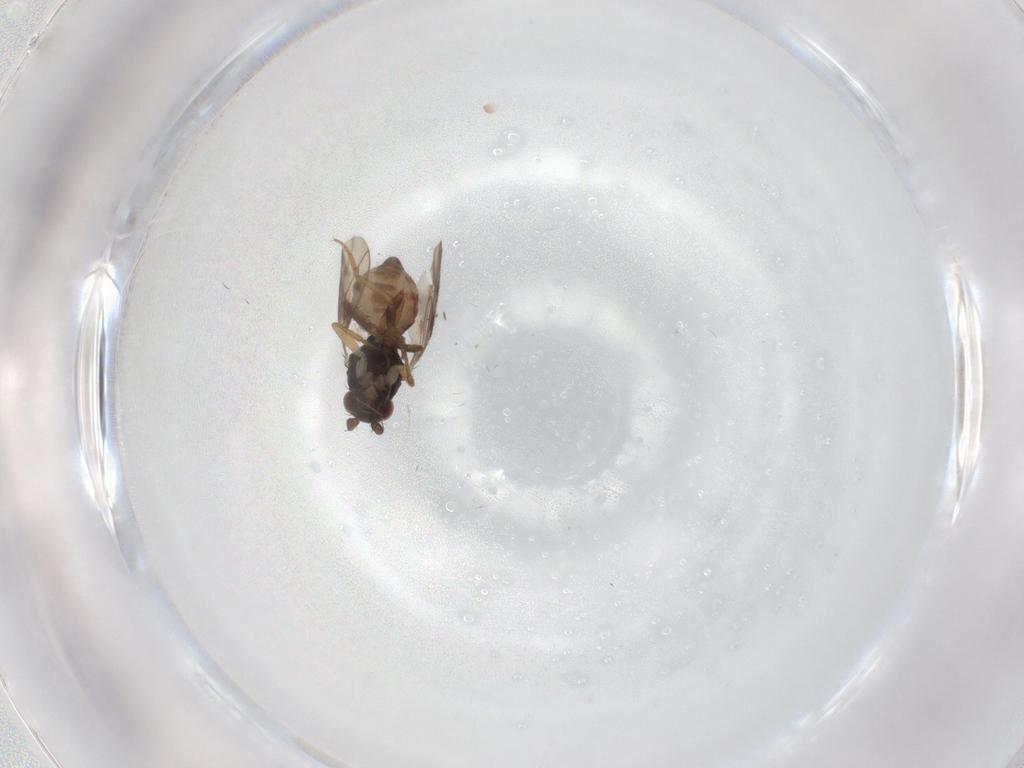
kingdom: Animalia
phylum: Arthropoda
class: Insecta
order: Diptera
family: Sphaeroceridae
